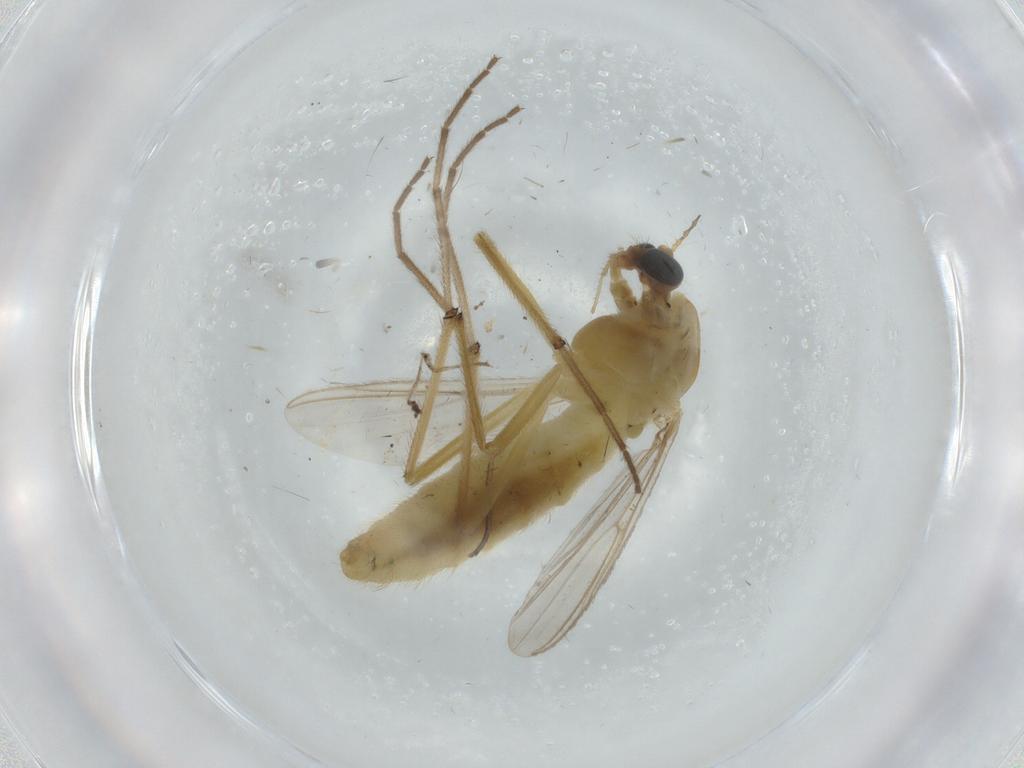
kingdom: Animalia
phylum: Arthropoda
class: Insecta
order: Diptera
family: Chironomidae
